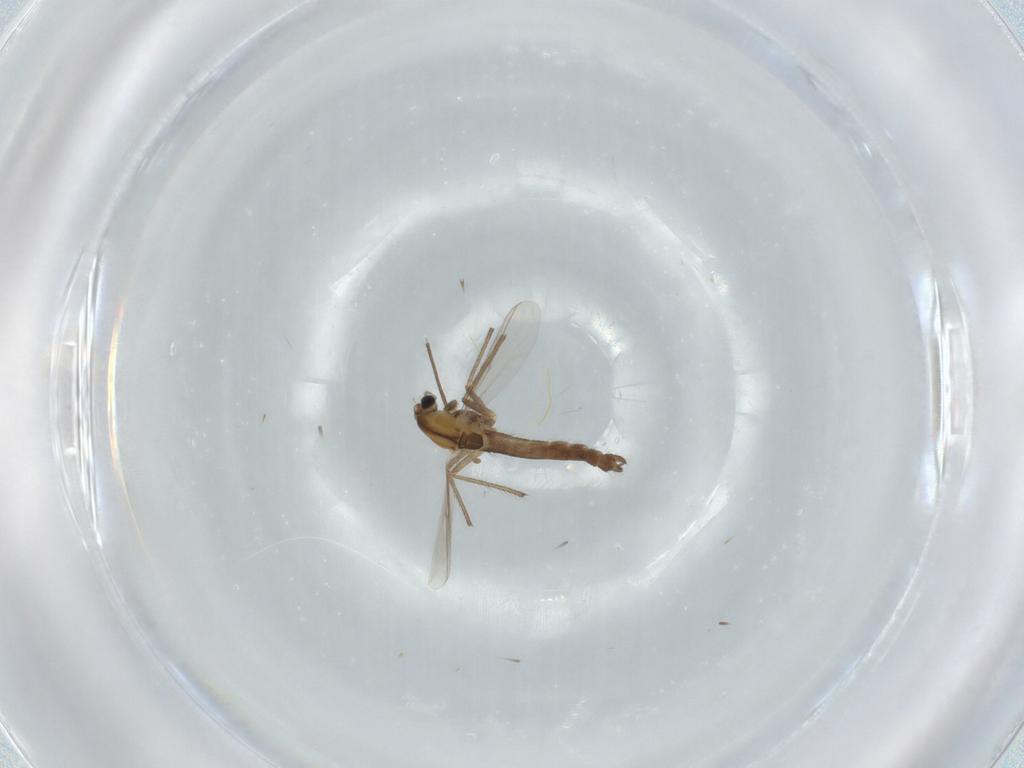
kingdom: Animalia
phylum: Arthropoda
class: Insecta
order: Diptera
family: Chironomidae
